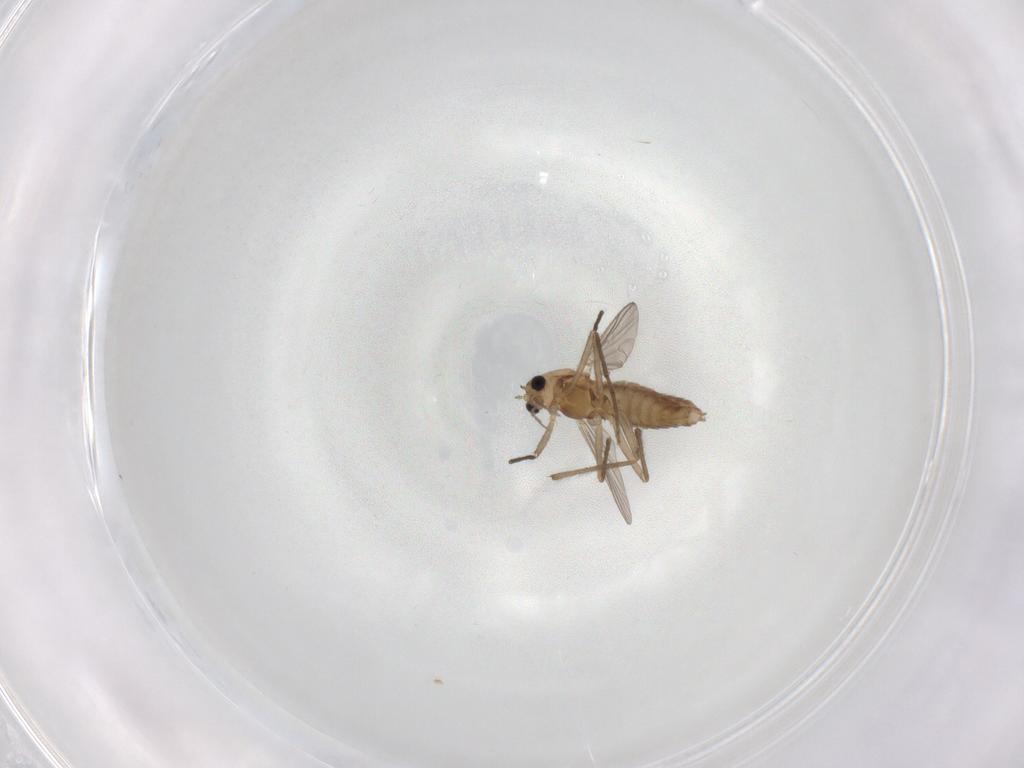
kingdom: Animalia
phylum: Arthropoda
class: Insecta
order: Diptera
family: Chironomidae
